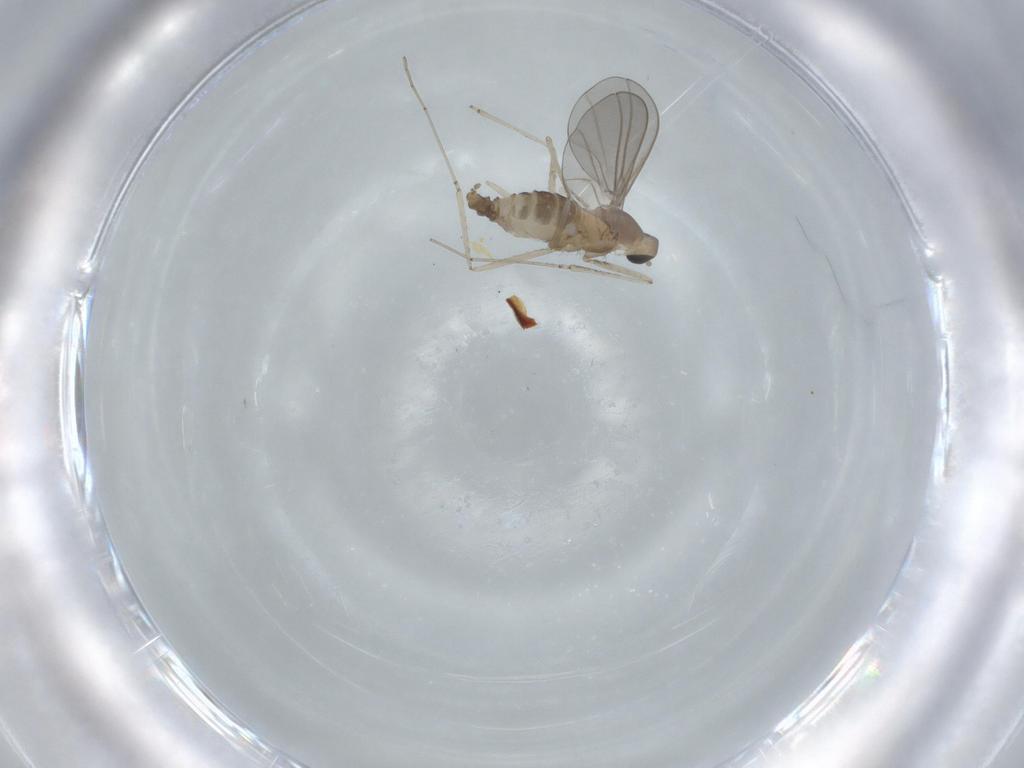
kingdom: Animalia
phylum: Arthropoda
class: Insecta
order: Diptera
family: Cecidomyiidae
